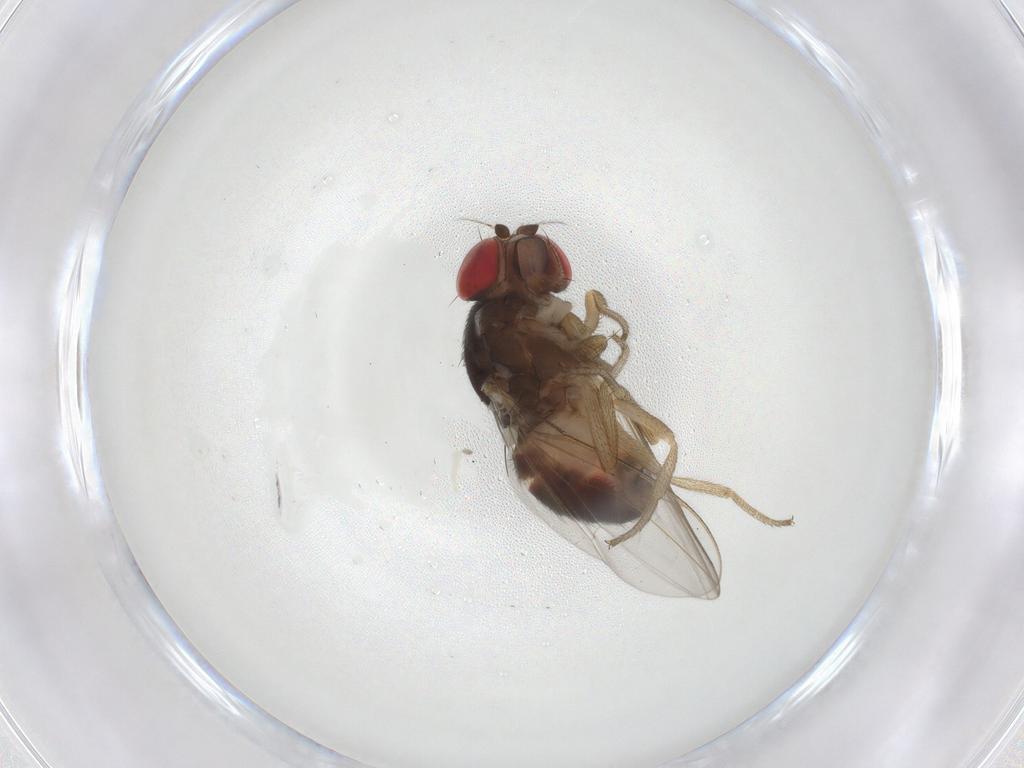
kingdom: Animalia
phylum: Arthropoda
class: Insecta
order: Diptera
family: Drosophilidae
